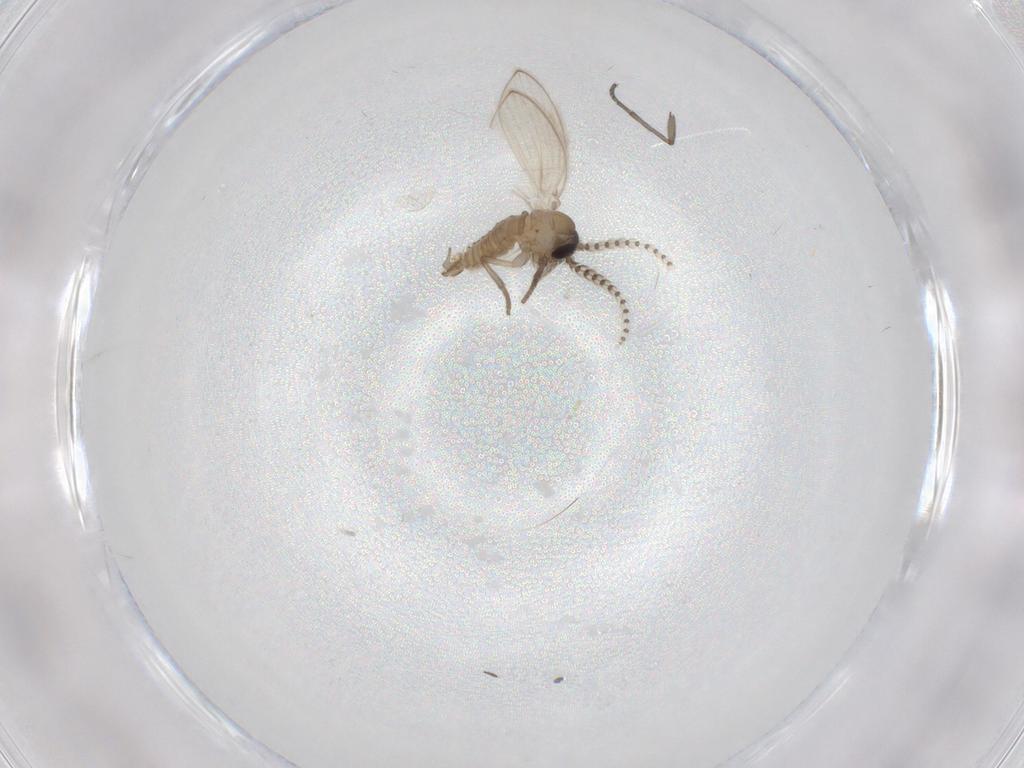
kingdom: Animalia
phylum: Arthropoda
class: Insecta
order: Diptera
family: Psychodidae
